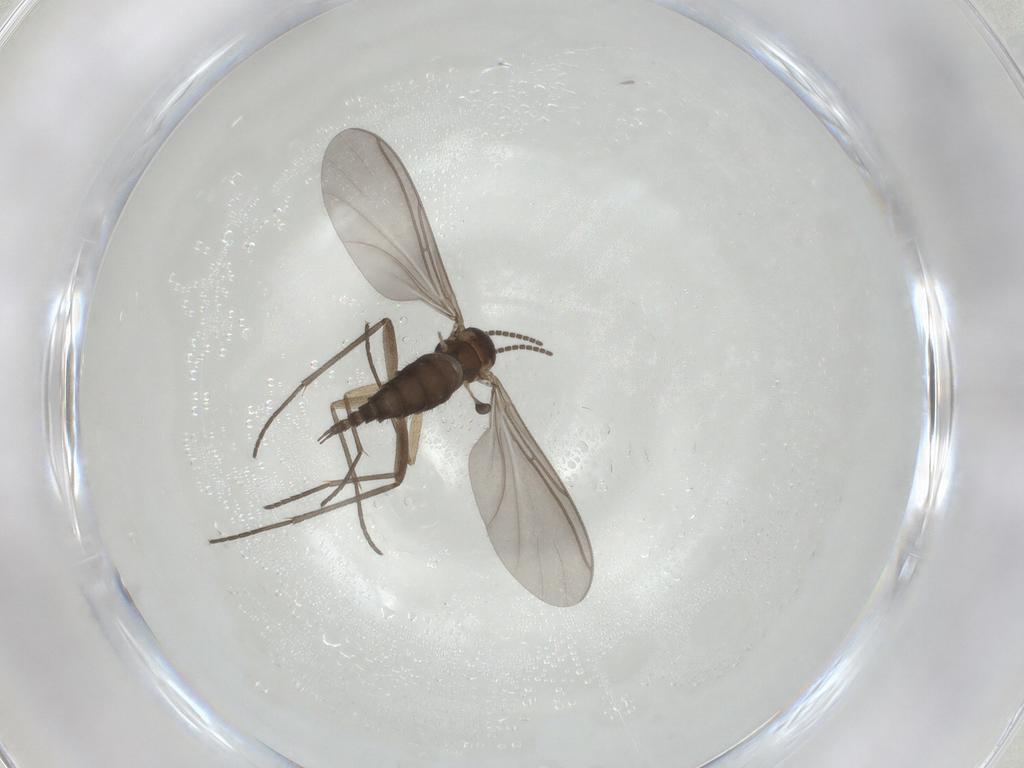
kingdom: Animalia
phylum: Arthropoda
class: Insecta
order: Diptera
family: Sciaridae
